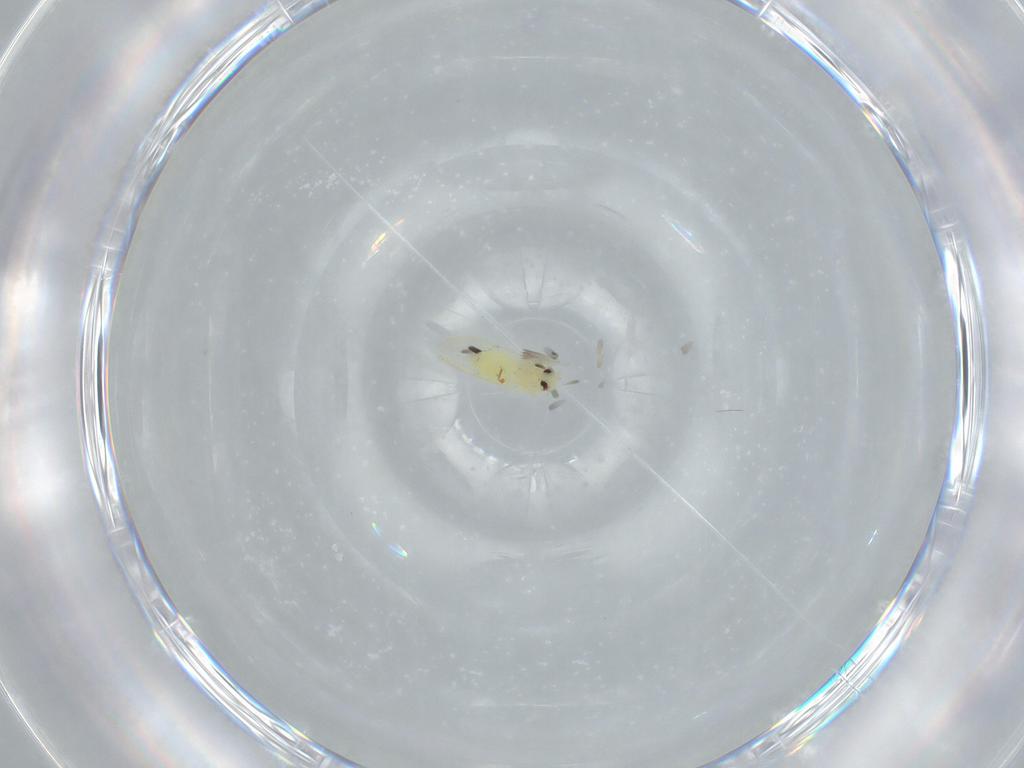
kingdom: Animalia
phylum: Arthropoda
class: Insecta
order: Hemiptera
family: Aleyrodidae
